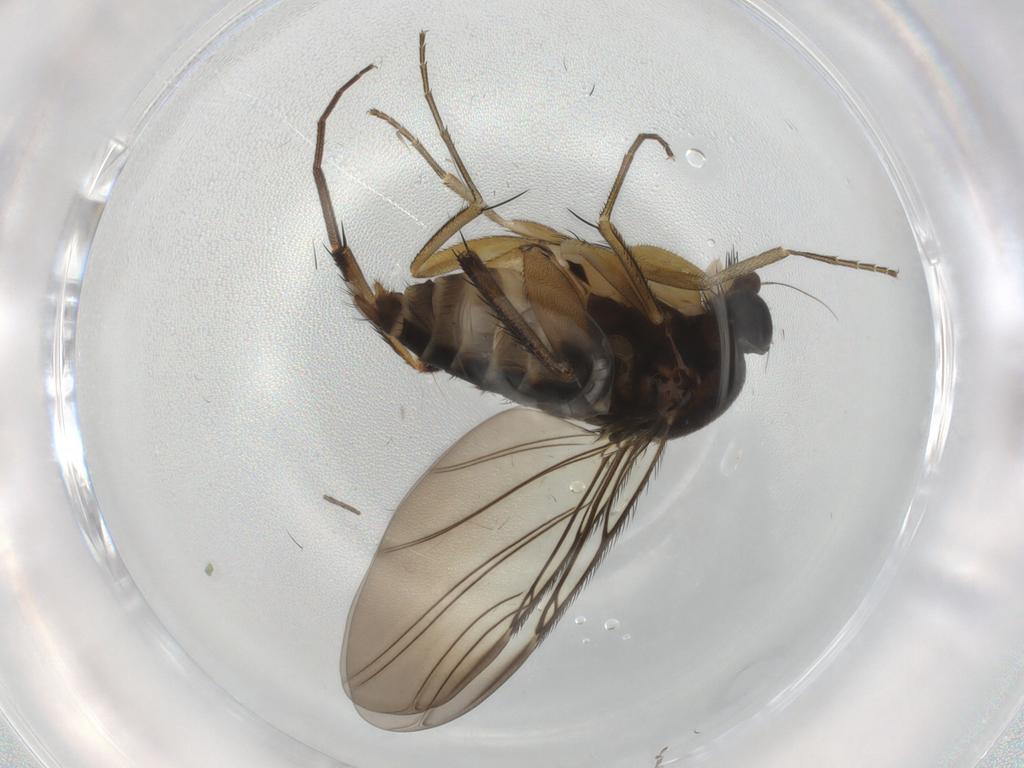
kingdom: Animalia
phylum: Arthropoda
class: Insecta
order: Diptera
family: Phoridae
